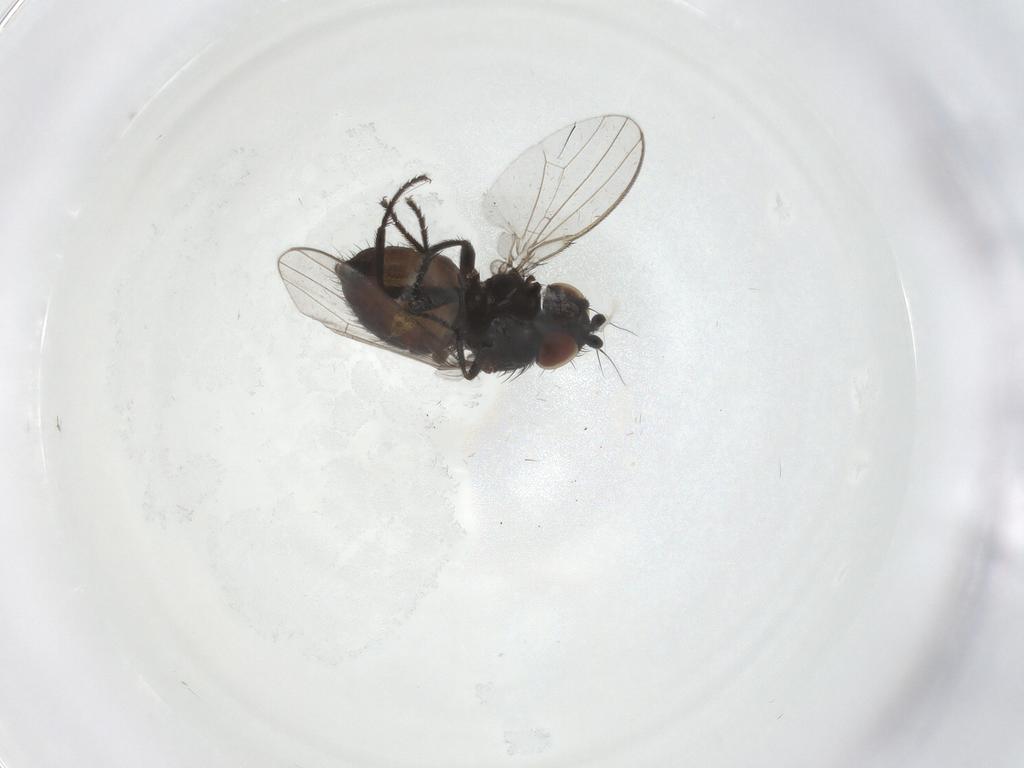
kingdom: Animalia
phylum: Arthropoda
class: Insecta
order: Diptera
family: Milichiidae
